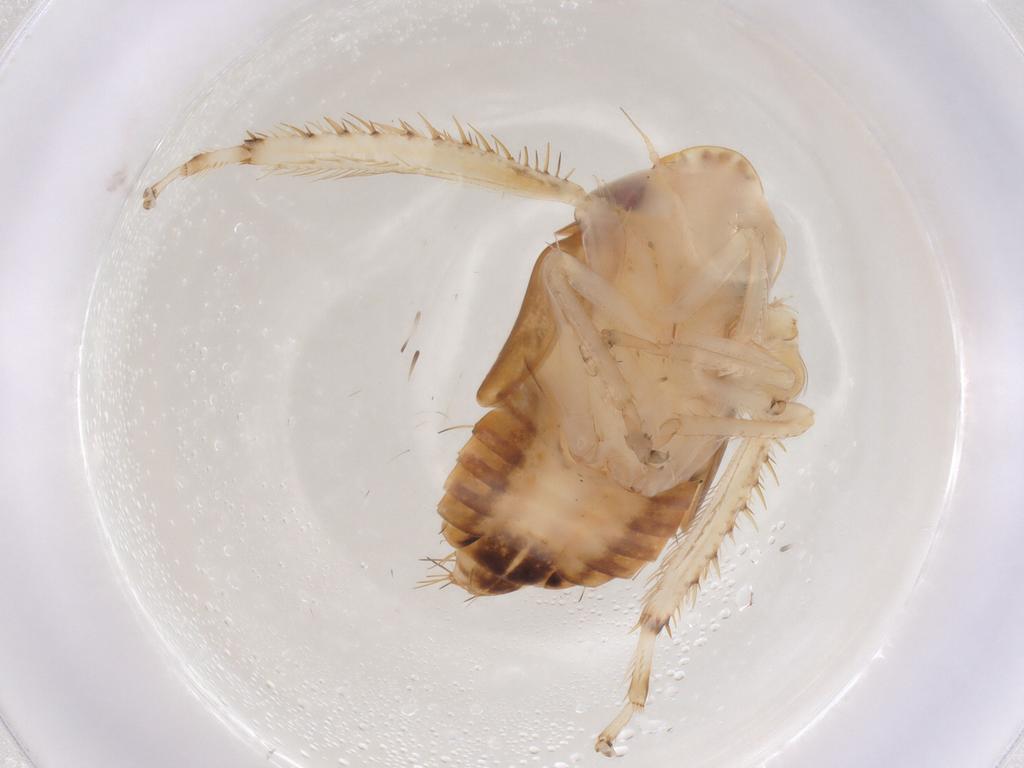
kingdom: Animalia
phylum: Arthropoda
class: Insecta
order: Lepidoptera
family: Gelechiidae
